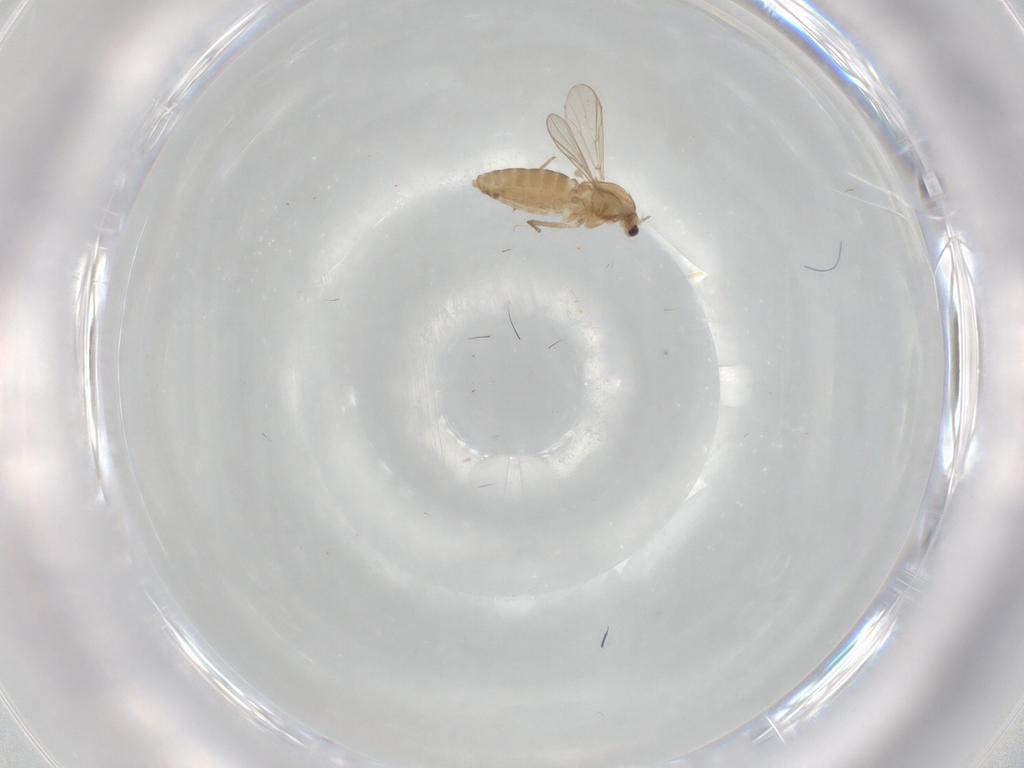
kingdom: Animalia
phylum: Arthropoda
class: Insecta
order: Diptera
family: Chironomidae
